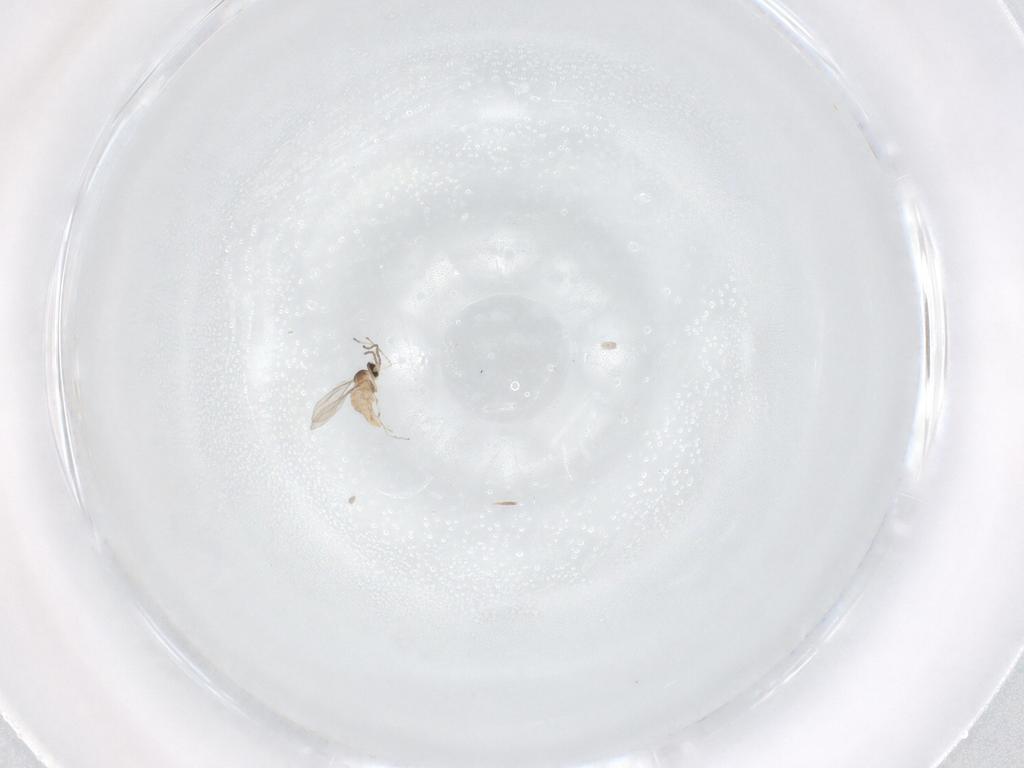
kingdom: Animalia
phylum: Arthropoda
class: Insecta
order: Diptera
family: Cecidomyiidae
